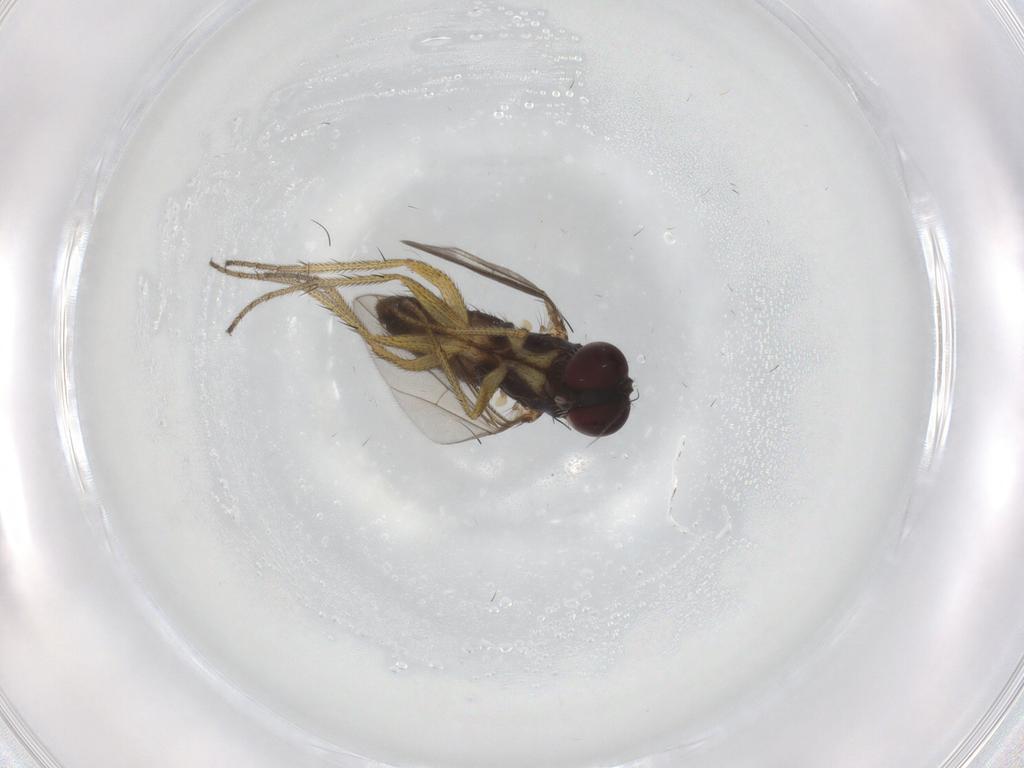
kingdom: Animalia
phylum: Arthropoda
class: Insecta
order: Diptera
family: Dolichopodidae
